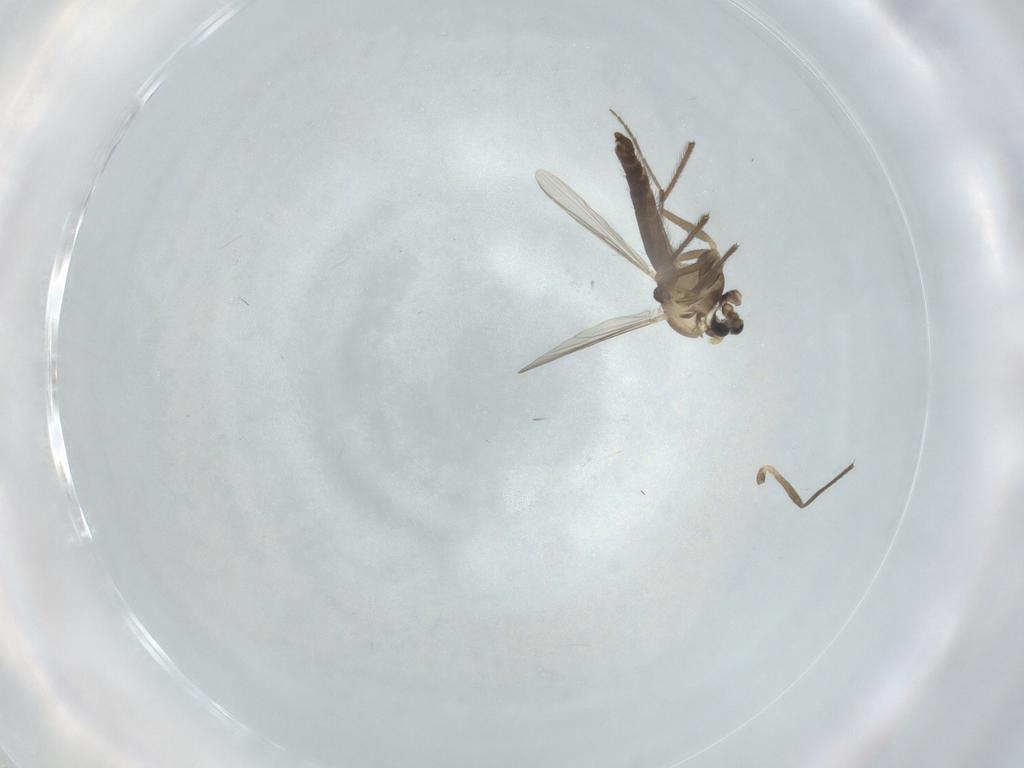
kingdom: Animalia
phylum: Arthropoda
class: Insecta
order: Diptera
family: Chironomidae
